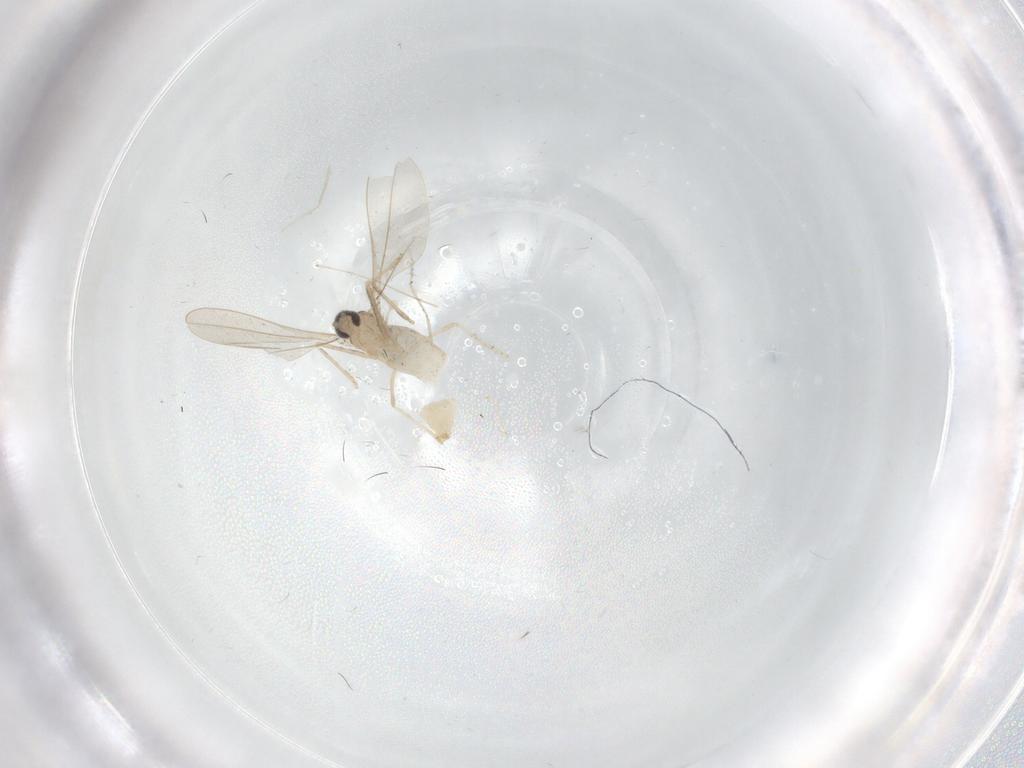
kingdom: Animalia
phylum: Arthropoda
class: Insecta
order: Diptera
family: Cecidomyiidae
